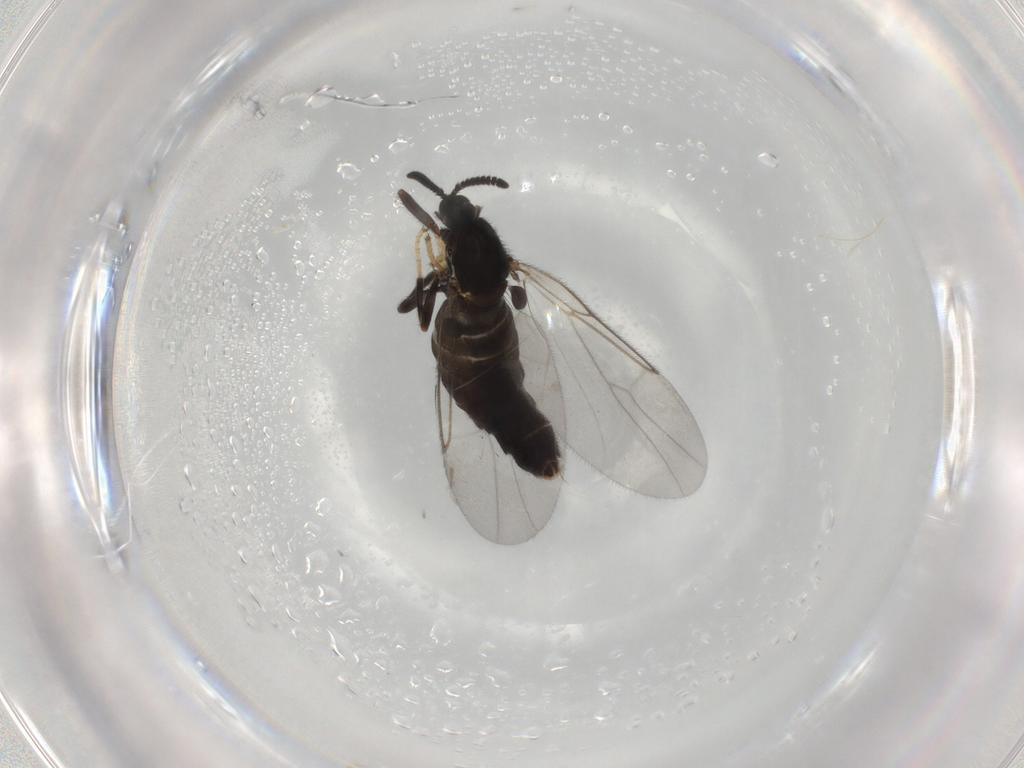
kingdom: Animalia
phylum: Arthropoda
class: Insecta
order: Diptera
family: Scatopsidae
